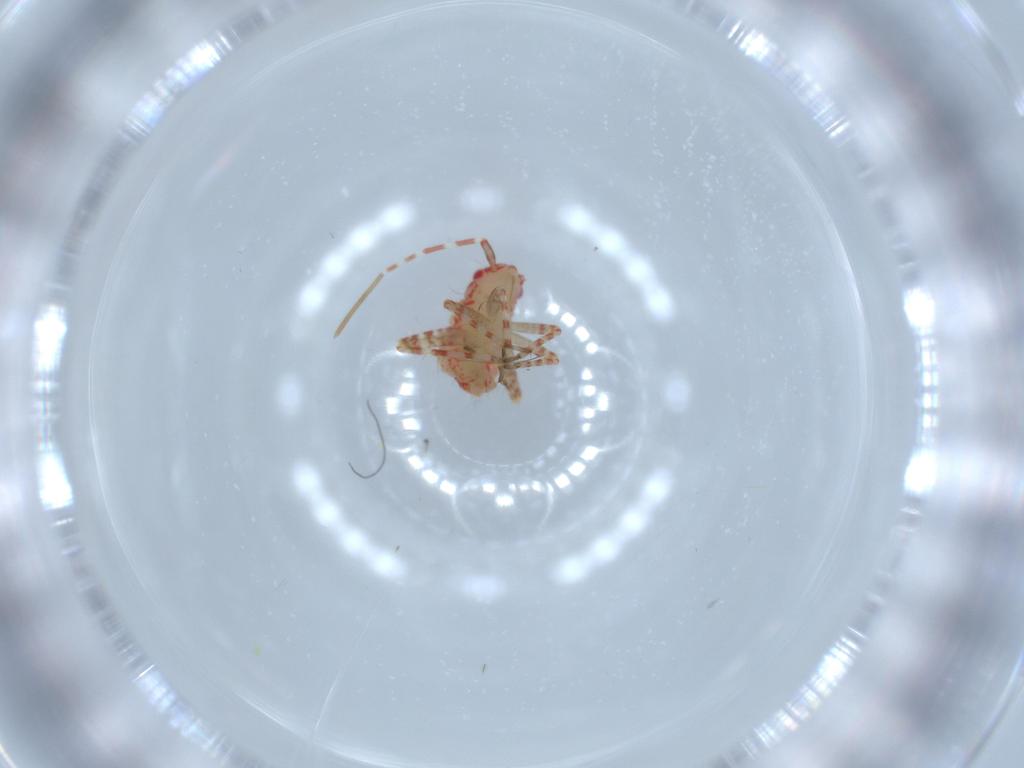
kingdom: Animalia
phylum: Arthropoda
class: Insecta
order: Hemiptera
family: Miridae
